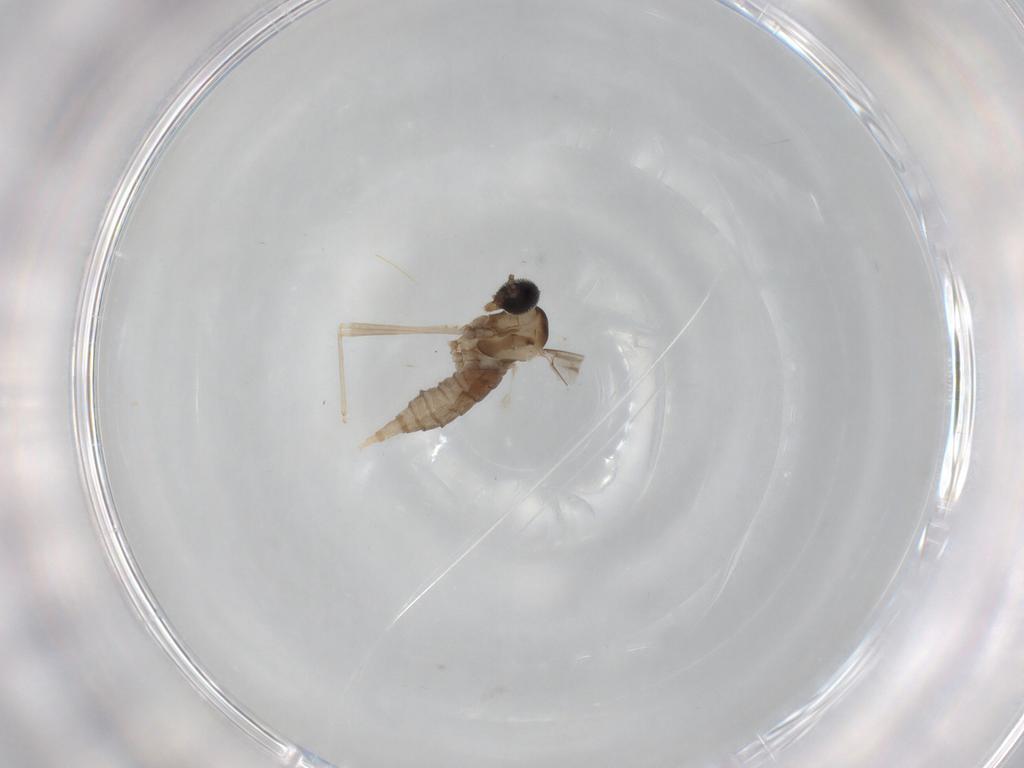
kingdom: Animalia
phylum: Arthropoda
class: Insecta
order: Diptera
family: Cecidomyiidae
